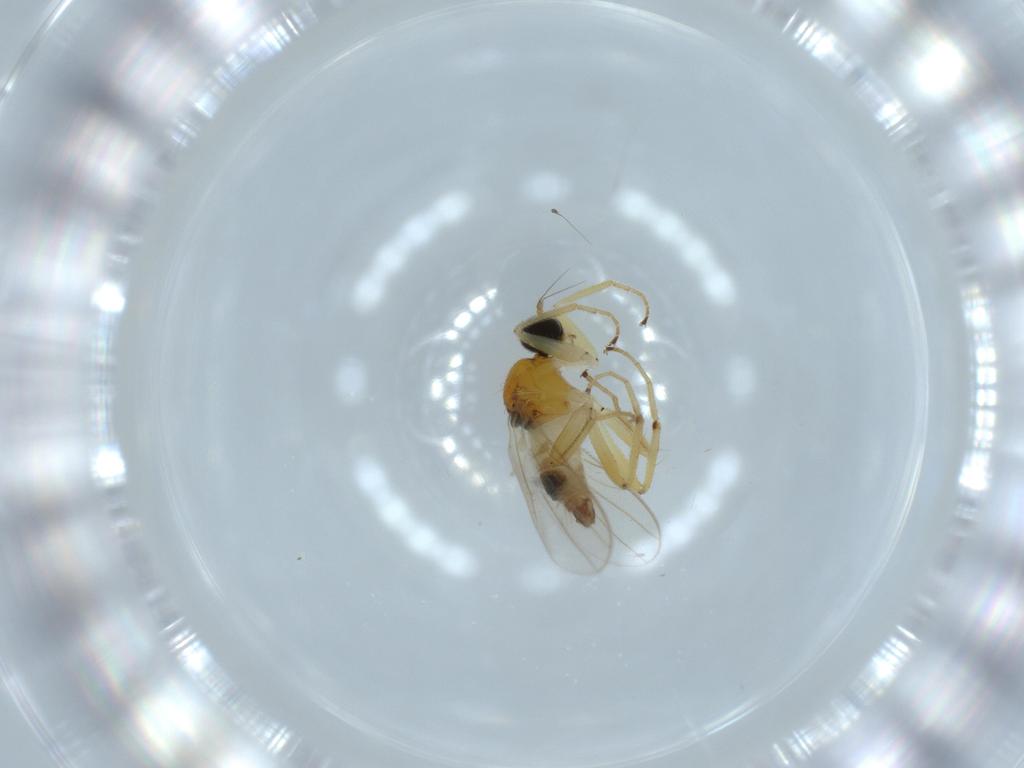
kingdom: Animalia
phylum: Arthropoda
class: Insecta
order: Diptera
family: Hybotidae
